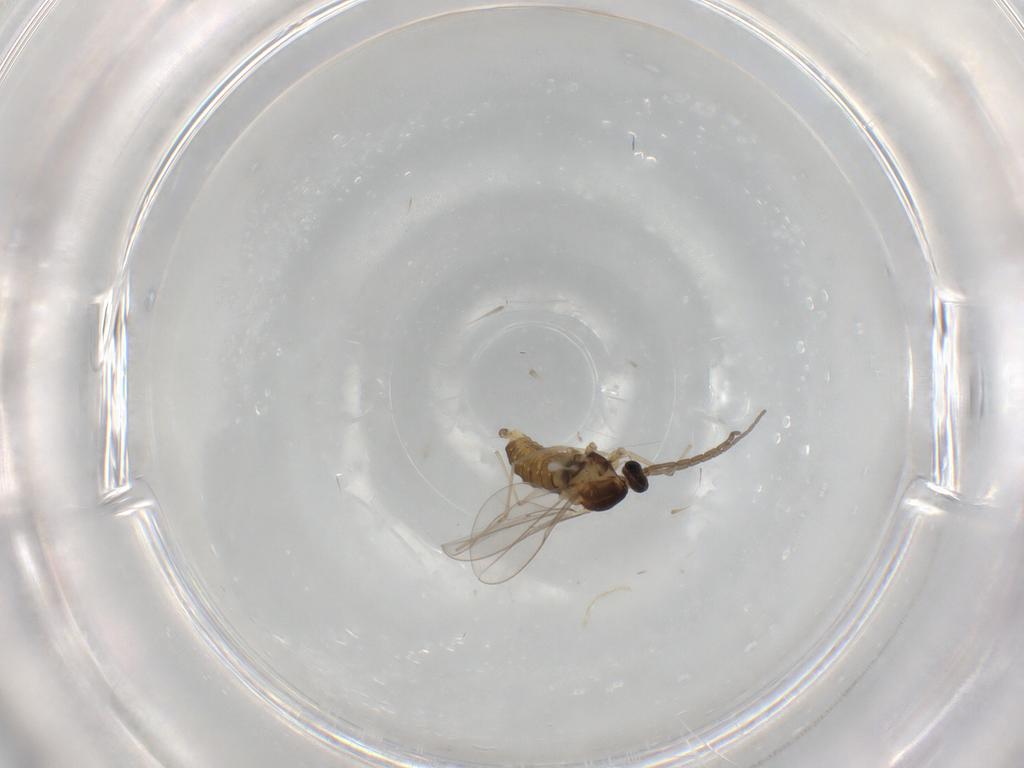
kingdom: Animalia
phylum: Arthropoda
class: Insecta
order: Diptera
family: Cecidomyiidae
